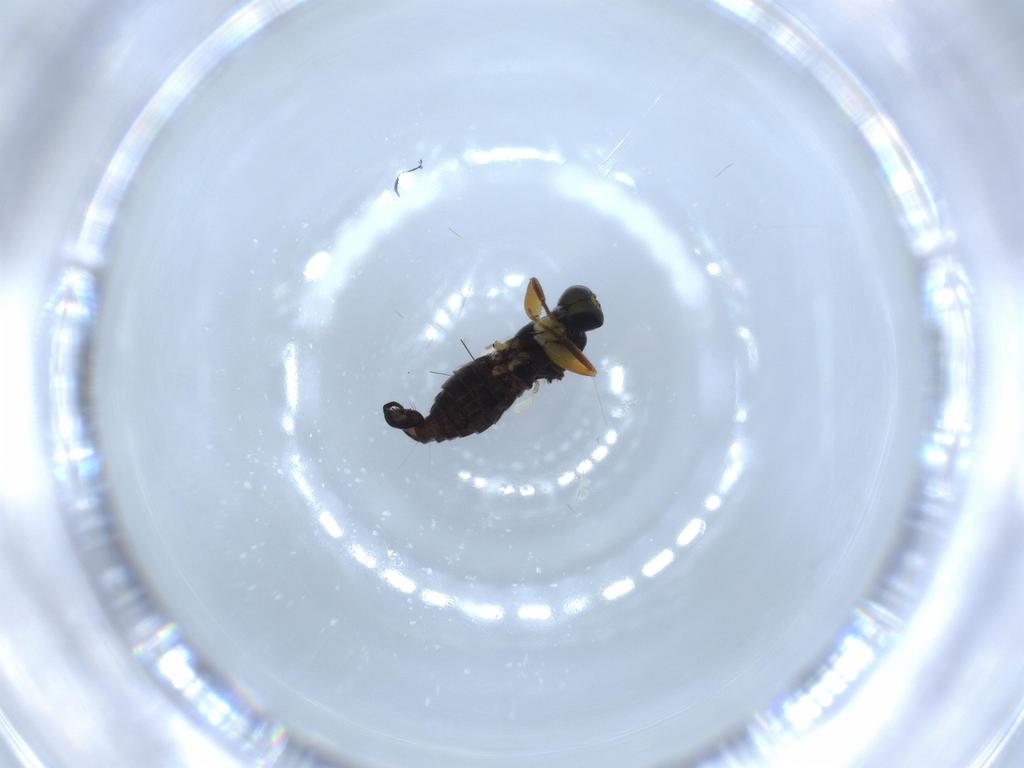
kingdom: Animalia
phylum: Arthropoda
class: Insecta
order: Diptera
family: Hybotidae
